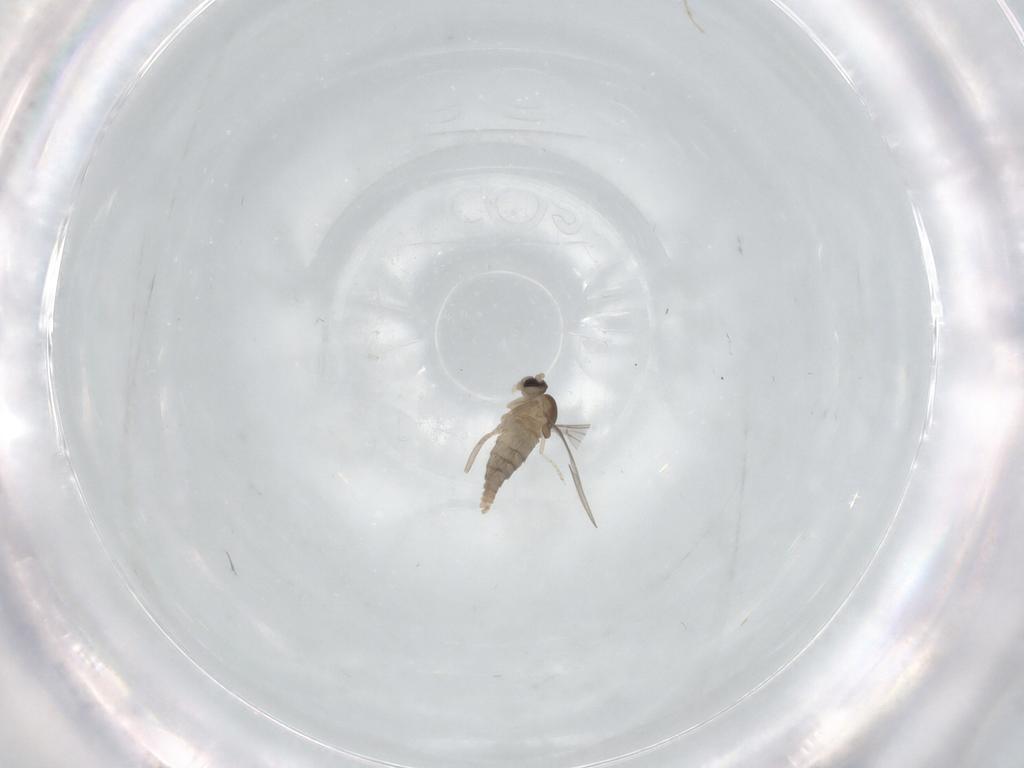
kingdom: Animalia
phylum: Arthropoda
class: Insecta
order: Diptera
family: Cecidomyiidae
